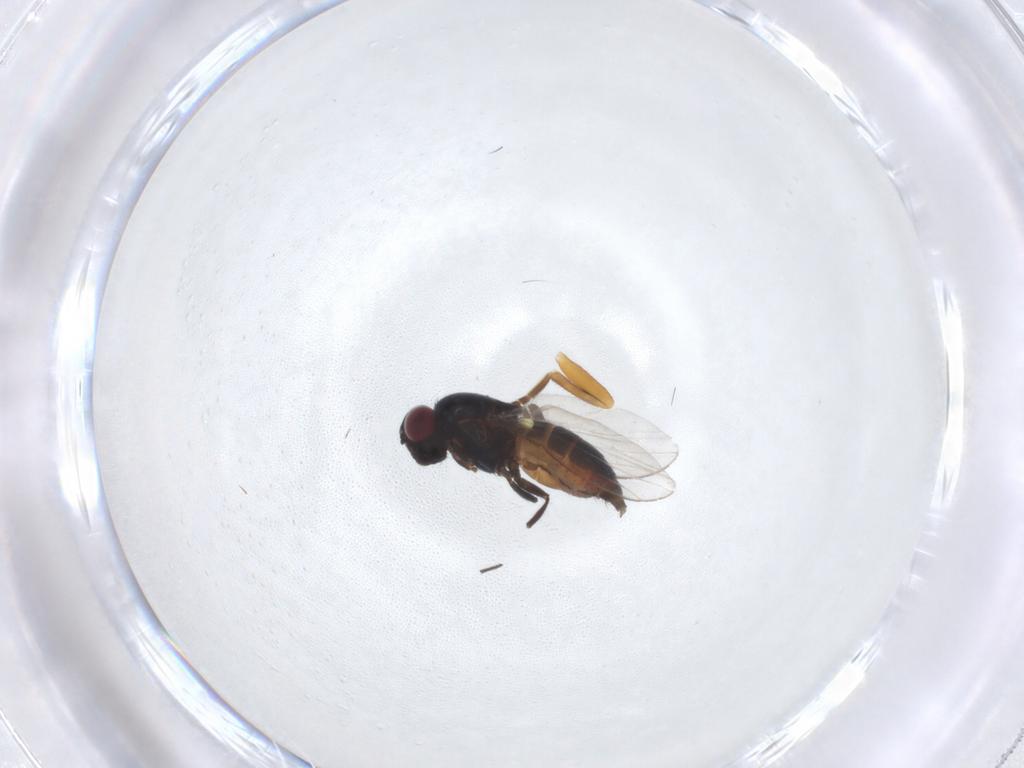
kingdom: Animalia
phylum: Arthropoda
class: Insecta
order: Diptera
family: Carnidae
